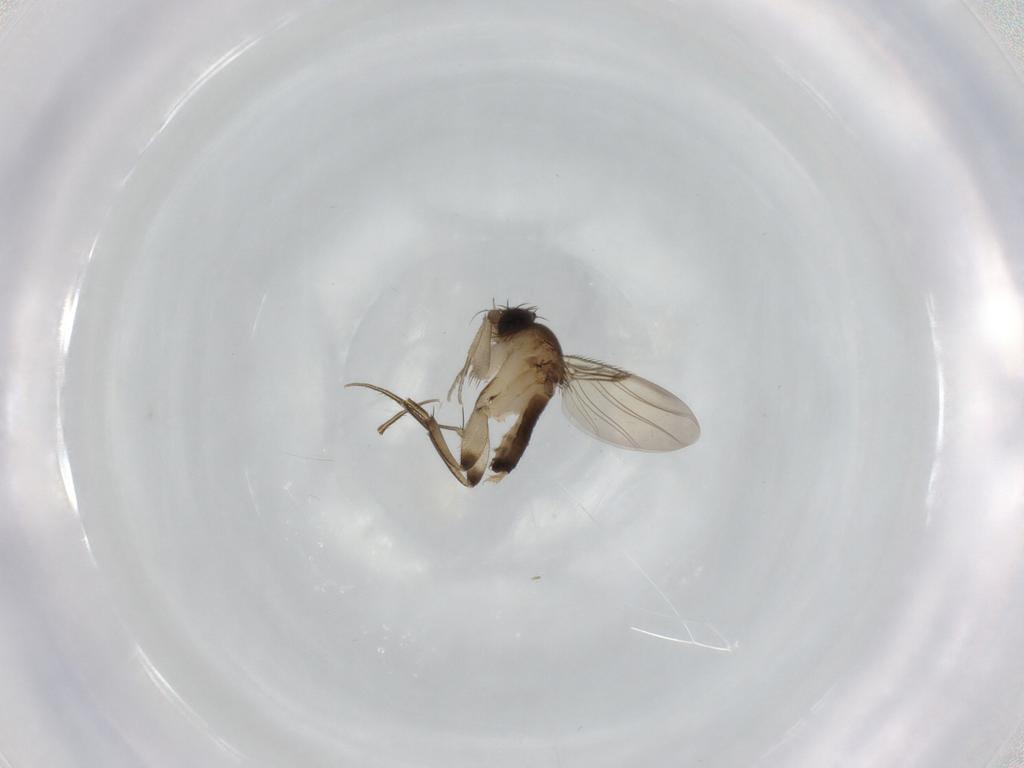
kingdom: Animalia
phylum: Arthropoda
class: Insecta
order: Diptera
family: Phoridae
